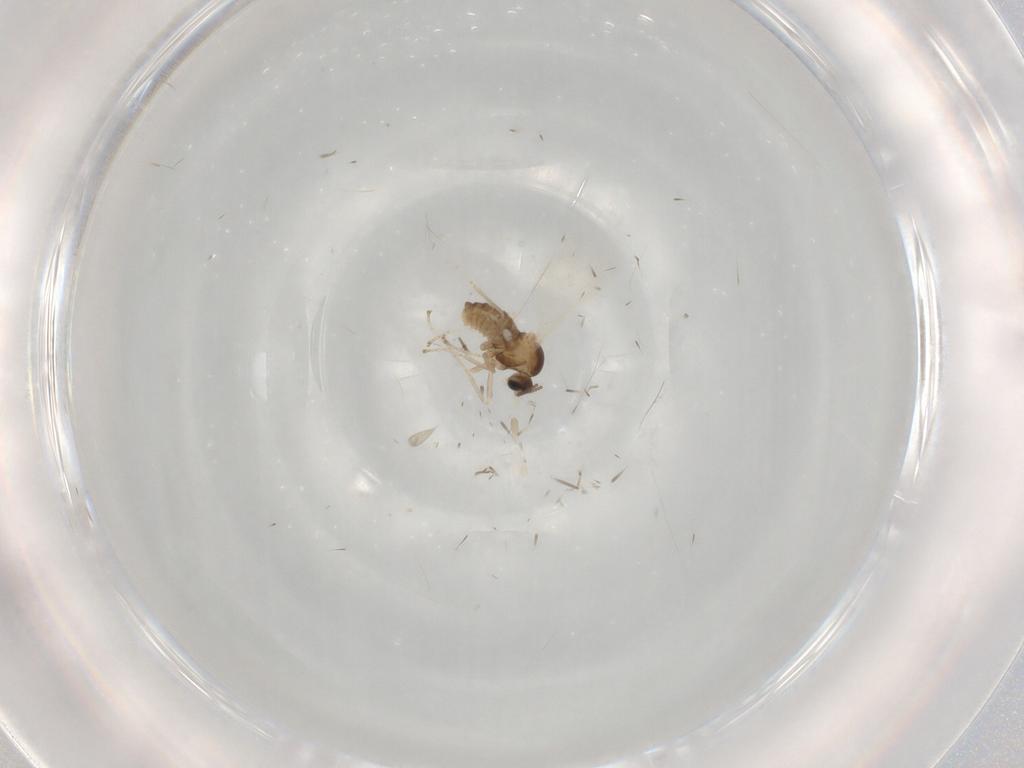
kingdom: Animalia
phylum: Arthropoda
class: Insecta
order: Diptera
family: Cecidomyiidae
